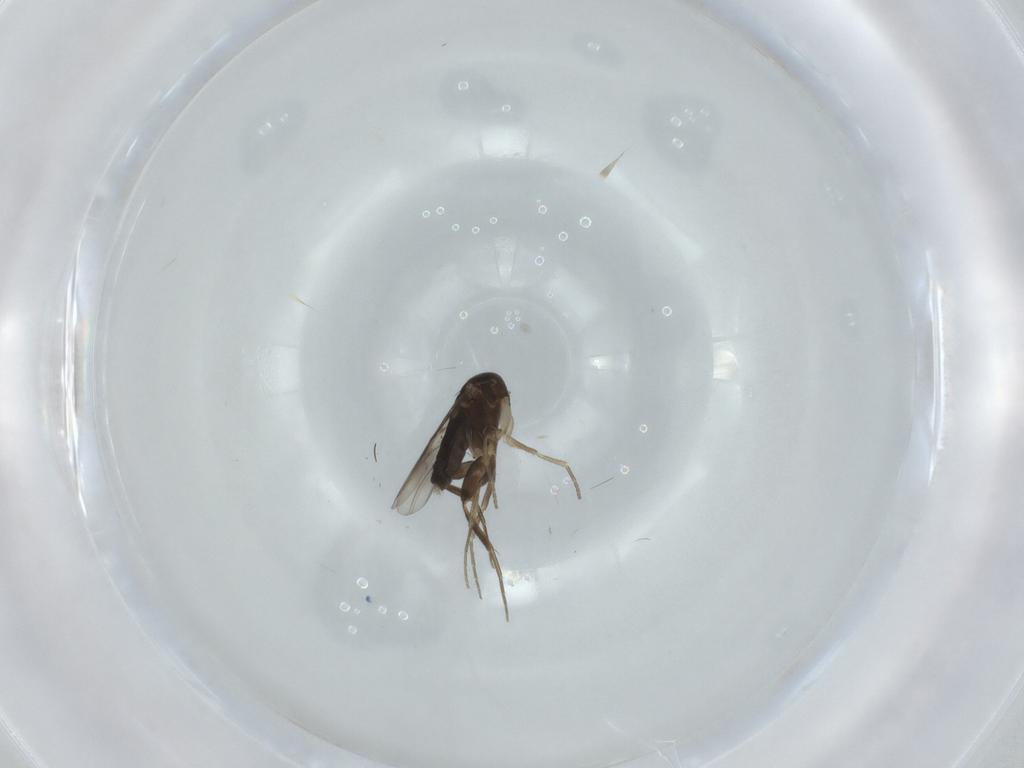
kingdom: Animalia
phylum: Arthropoda
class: Insecta
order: Diptera
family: Phoridae
